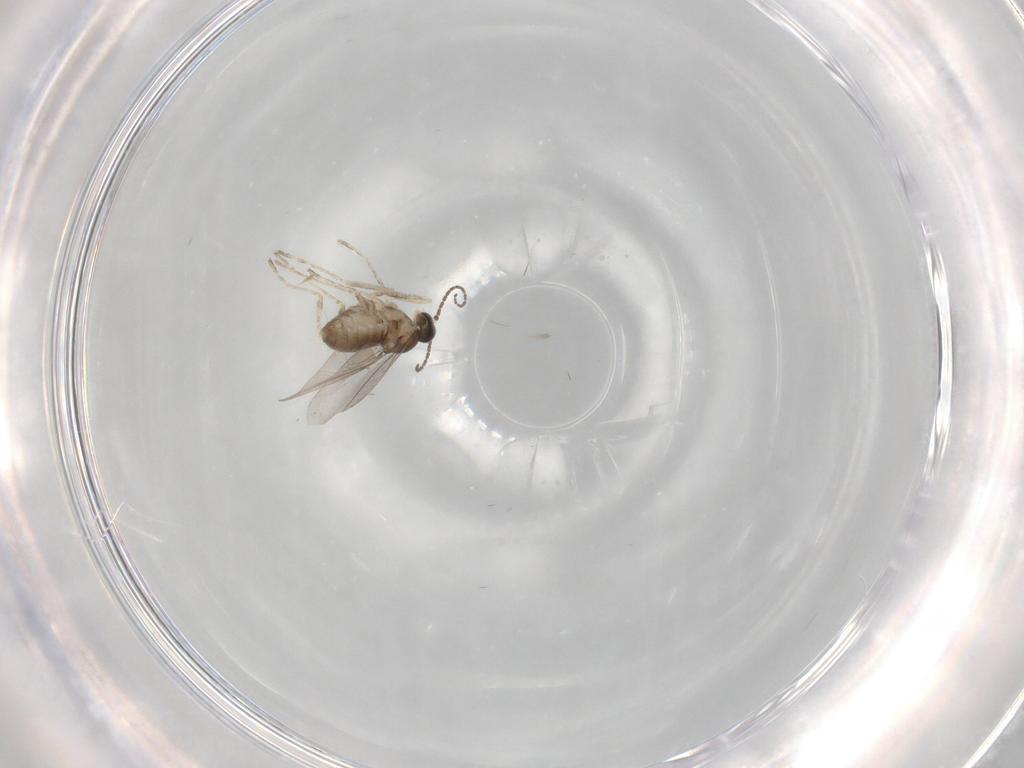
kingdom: Animalia
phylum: Arthropoda
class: Insecta
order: Diptera
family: Cecidomyiidae
